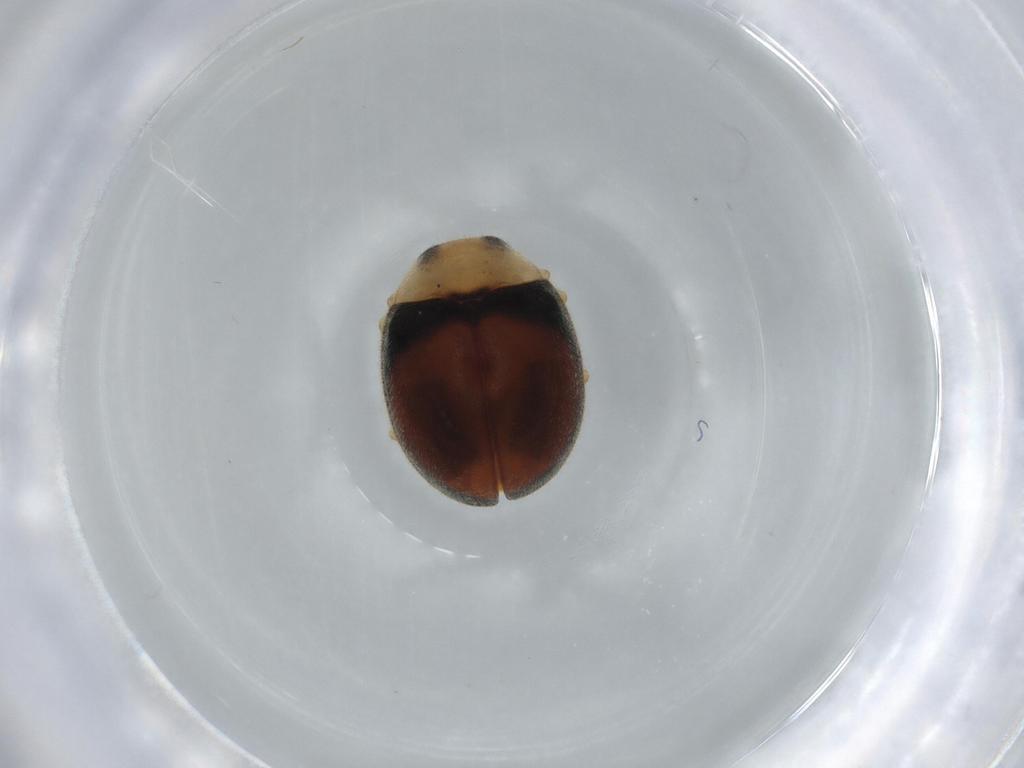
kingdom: Animalia
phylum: Arthropoda
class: Insecta
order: Coleoptera
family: Coccinellidae
